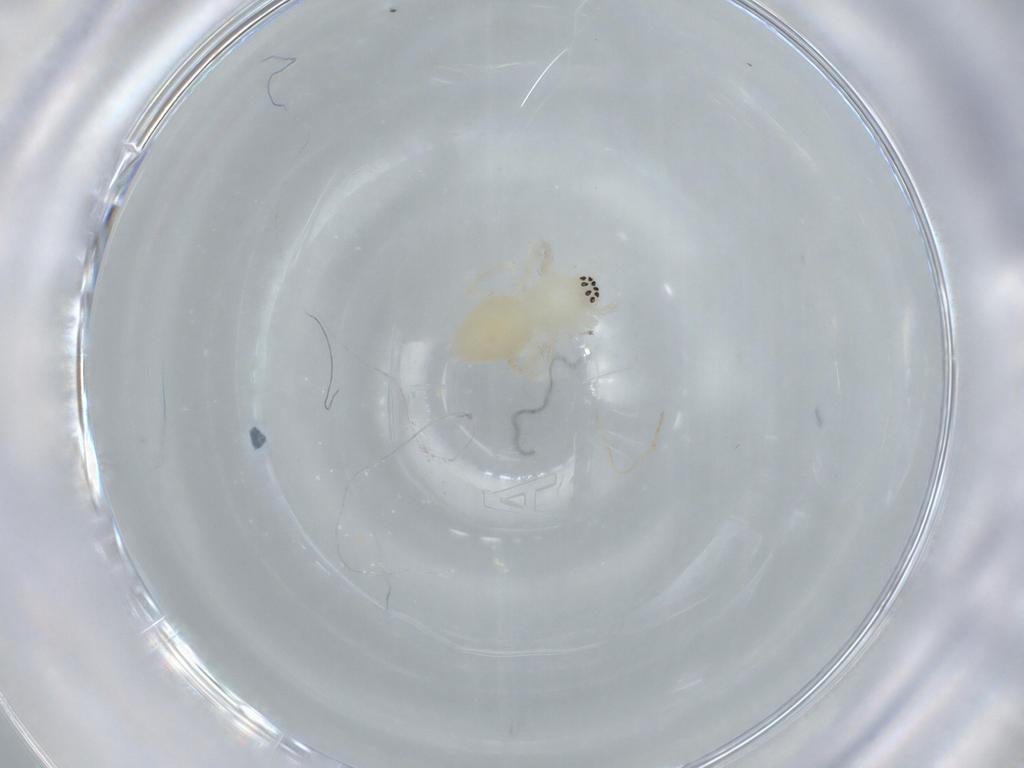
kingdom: Animalia
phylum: Arthropoda
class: Arachnida
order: Araneae
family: Anyphaenidae
